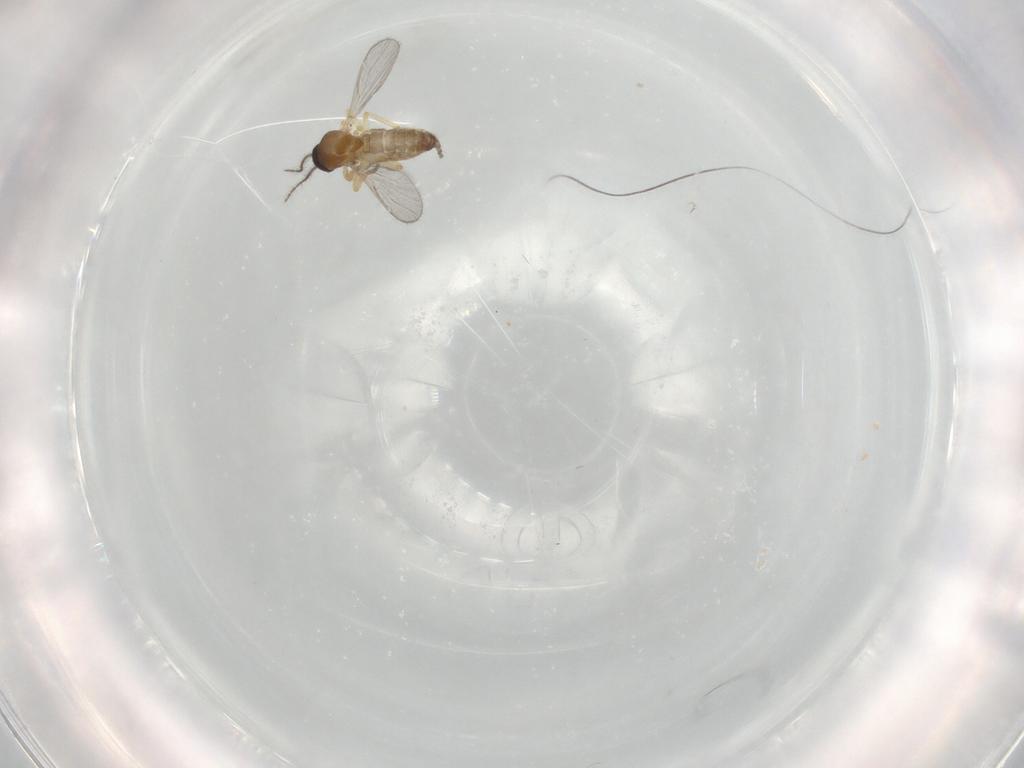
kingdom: Animalia
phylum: Arthropoda
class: Insecta
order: Diptera
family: Ceratopogonidae
